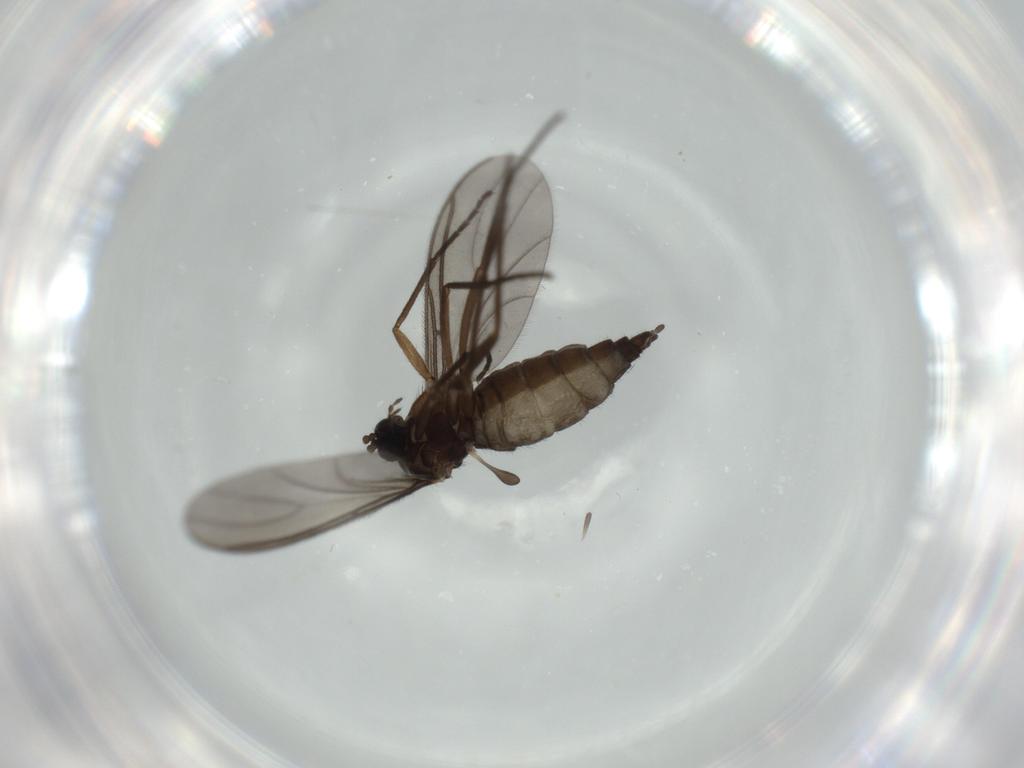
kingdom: Animalia
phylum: Arthropoda
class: Insecta
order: Diptera
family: Sciaridae
